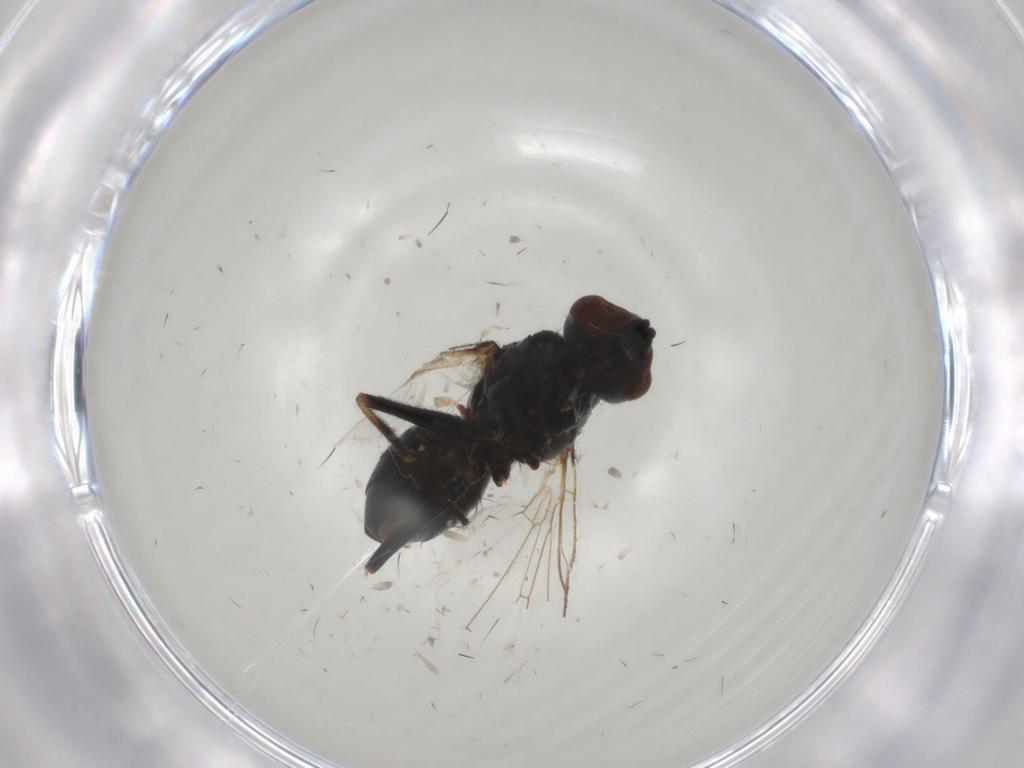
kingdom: Animalia
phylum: Arthropoda
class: Insecta
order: Diptera
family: Muscidae
